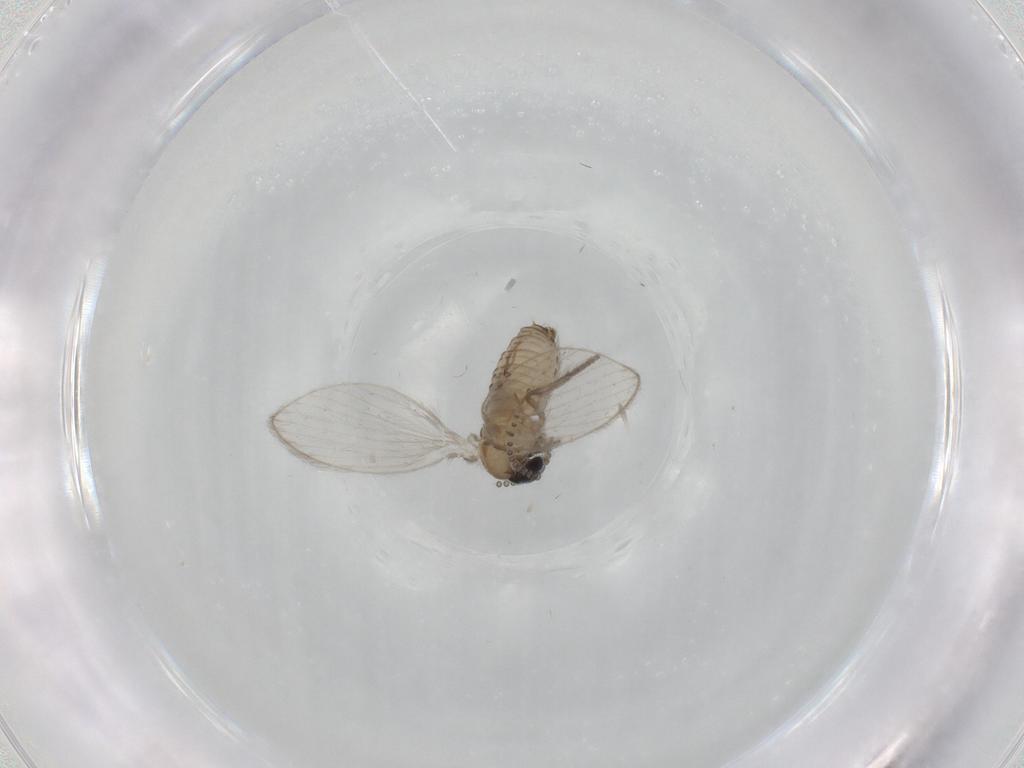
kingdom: Animalia
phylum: Arthropoda
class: Insecta
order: Diptera
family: Psychodidae
